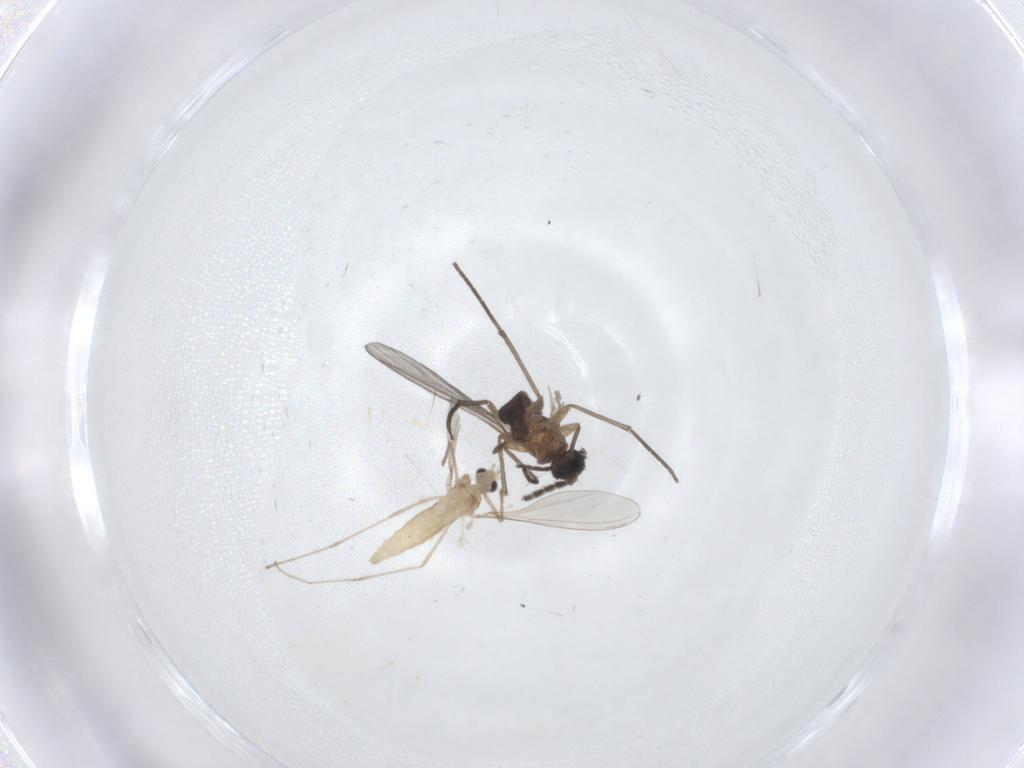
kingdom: Animalia
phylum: Arthropoda
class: Insecta
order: Diptera
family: Cecidomyiidae
